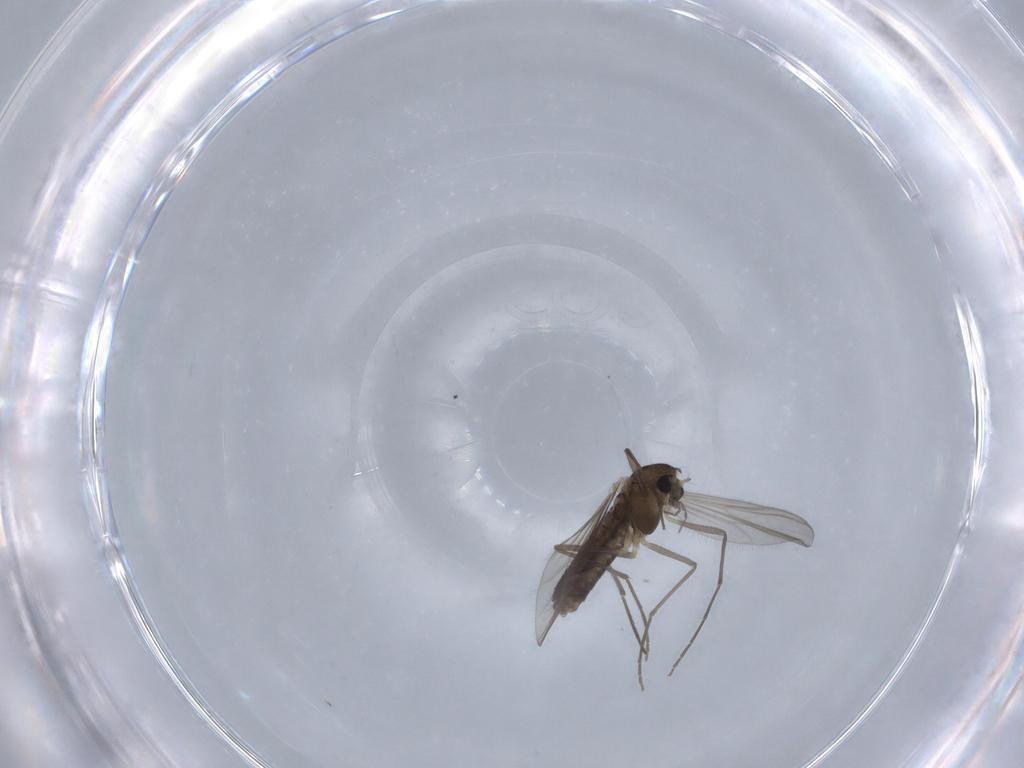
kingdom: Animalia
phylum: Arthropoda
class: Insecta
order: Diptera
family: Chironomidae
